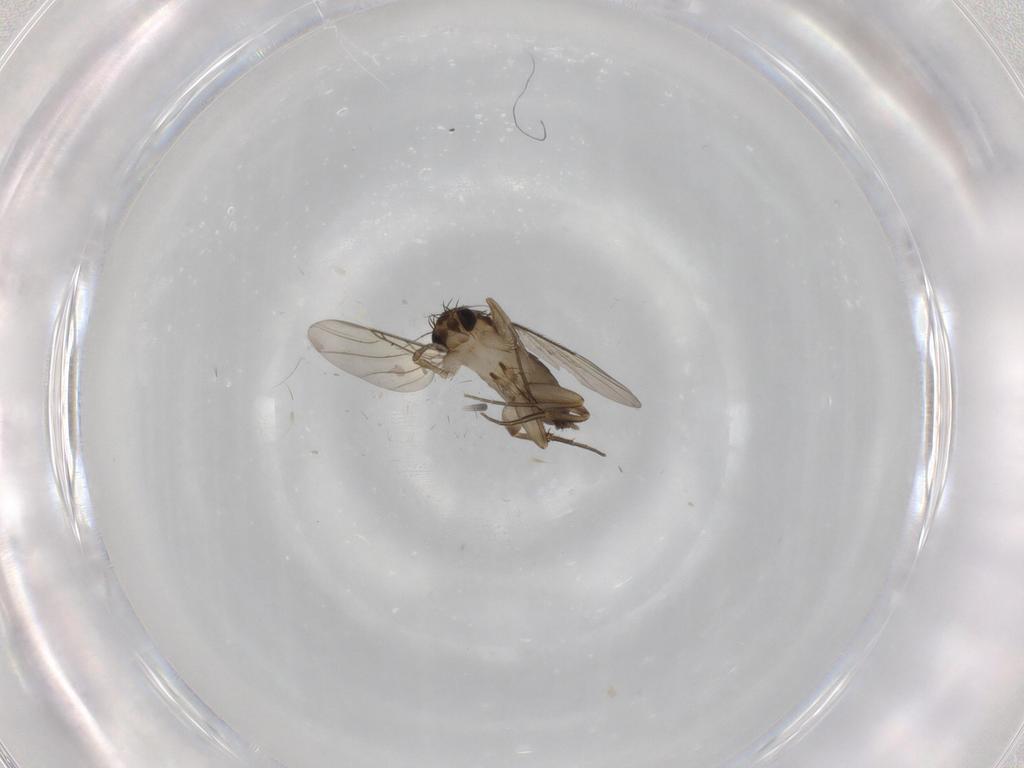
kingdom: Animalia
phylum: Arthropoda
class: Insecta
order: Diptera
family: Phoridae
